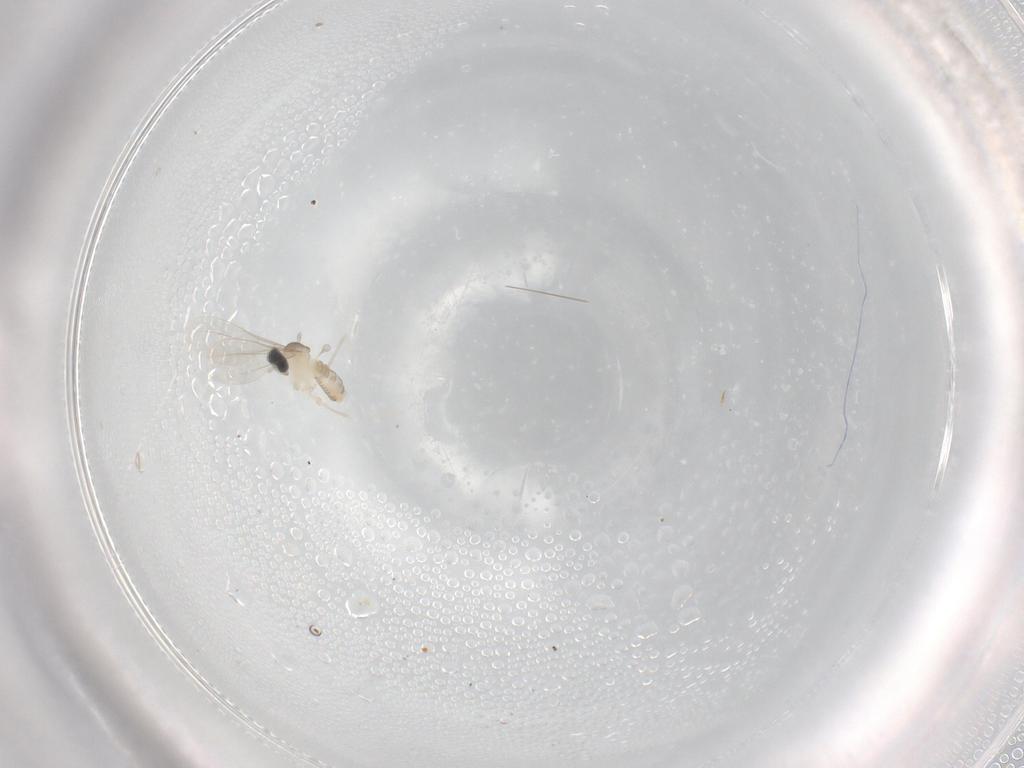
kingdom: Animalia
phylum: Arthropoda
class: Insecta
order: Diptera
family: Cecidomyiidae
